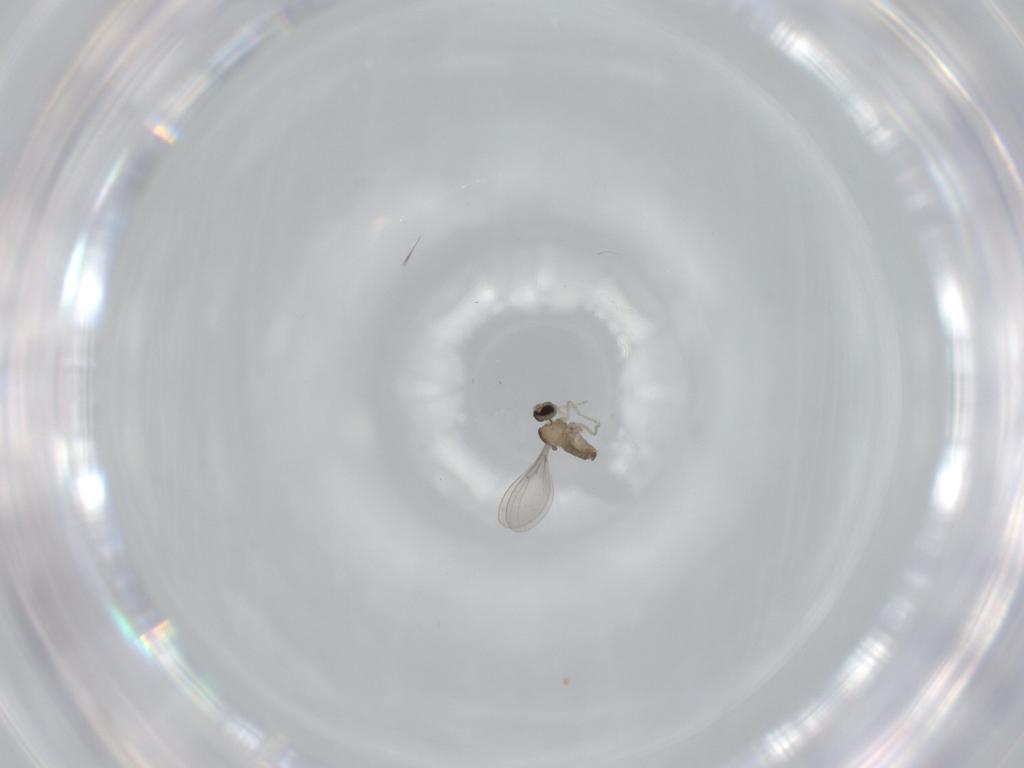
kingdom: Animalia
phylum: Arthropoda
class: Insecta
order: Diptera
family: Cecidomyiidae
